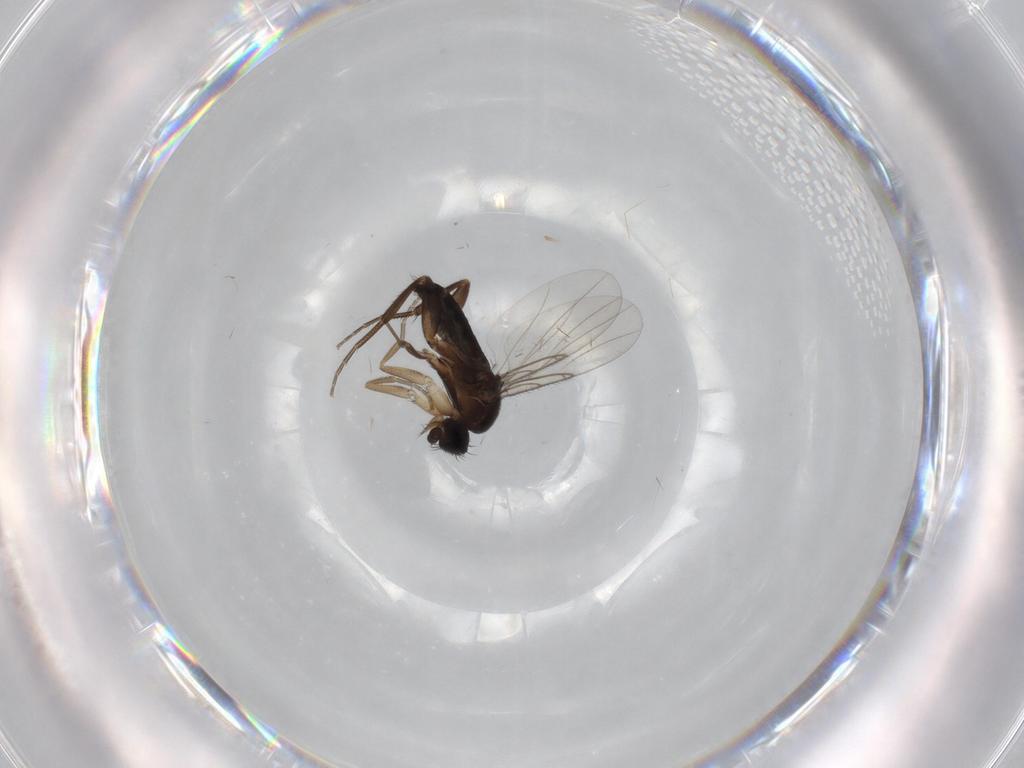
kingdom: Animalia
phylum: Arthropoda
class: Insecta
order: Diptera
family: Phoridae
